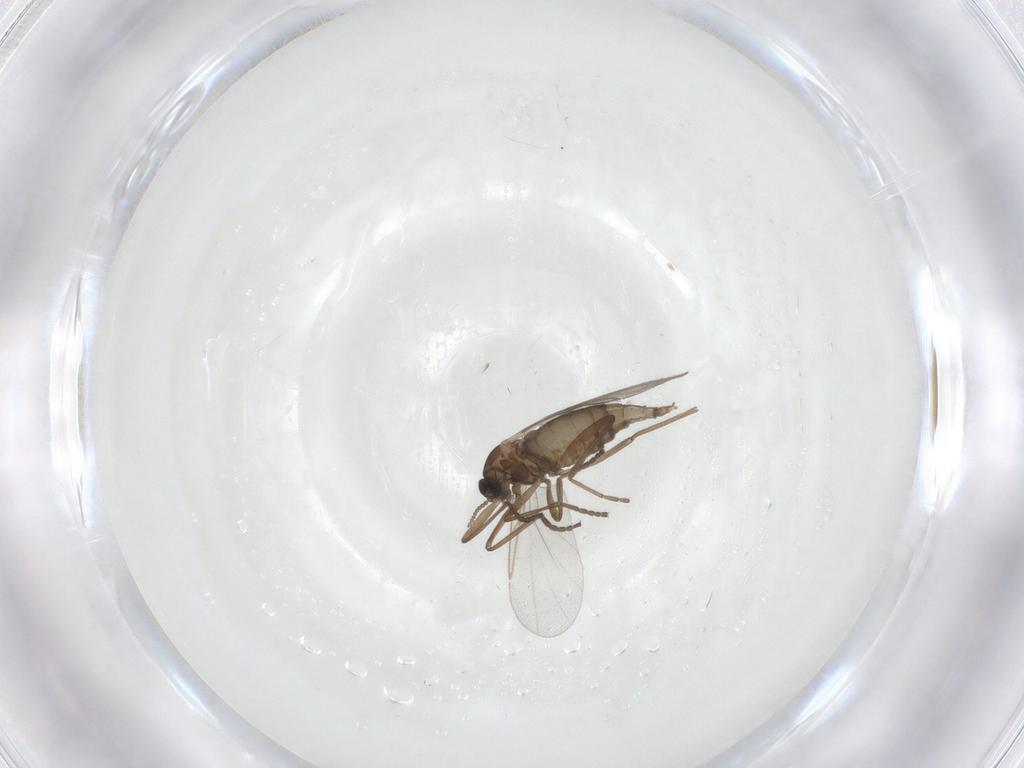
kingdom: Animalia
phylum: Arthropoda
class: Insecta
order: Diptera
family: Cecidomyiidae
